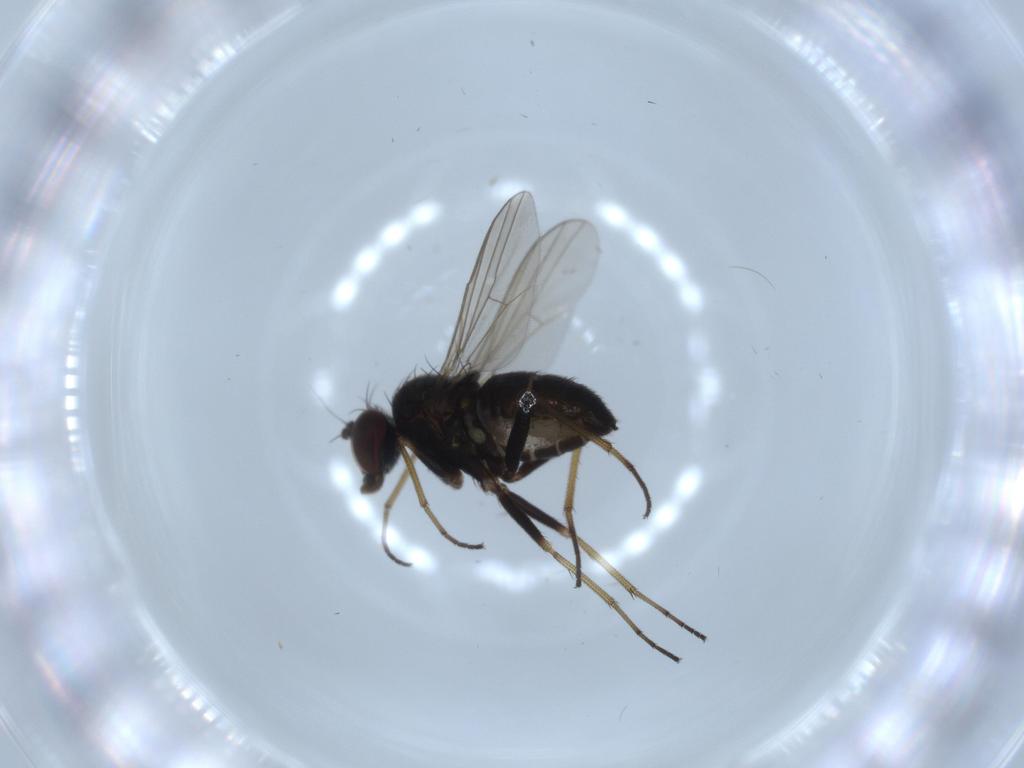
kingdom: Animalia
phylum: Arthropoda
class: Insecta
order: Diptera
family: Dolichopodidae
